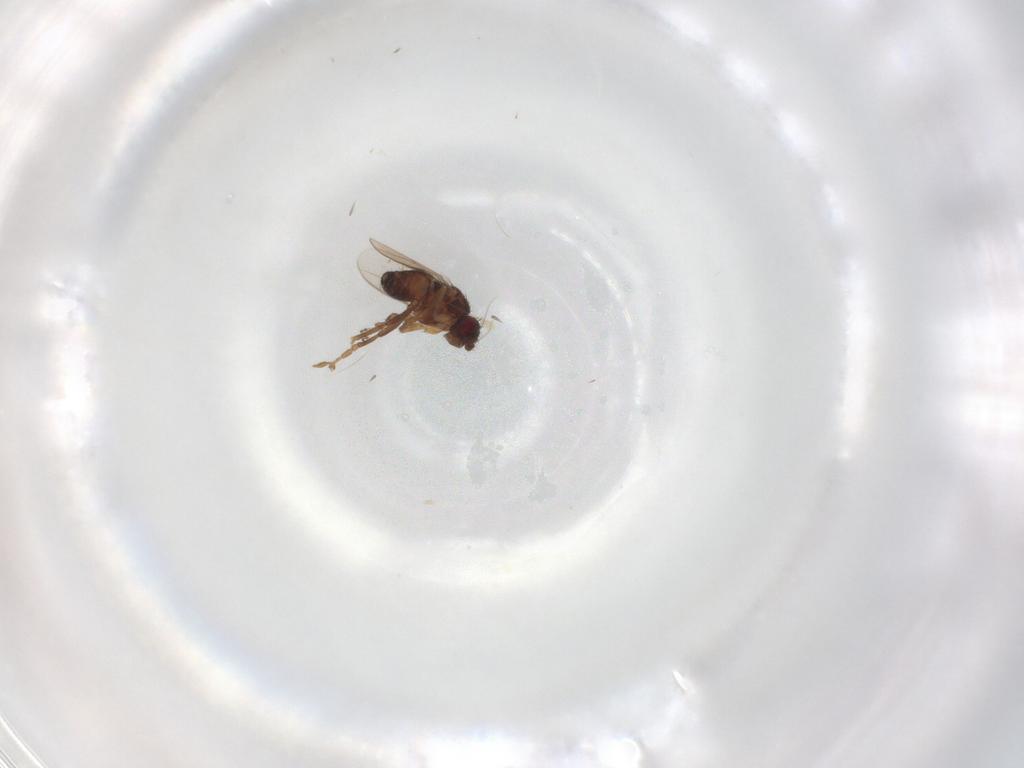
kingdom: Animalia
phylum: Arthropoda
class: Insecta
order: Diptera
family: Sphaeroceridae
